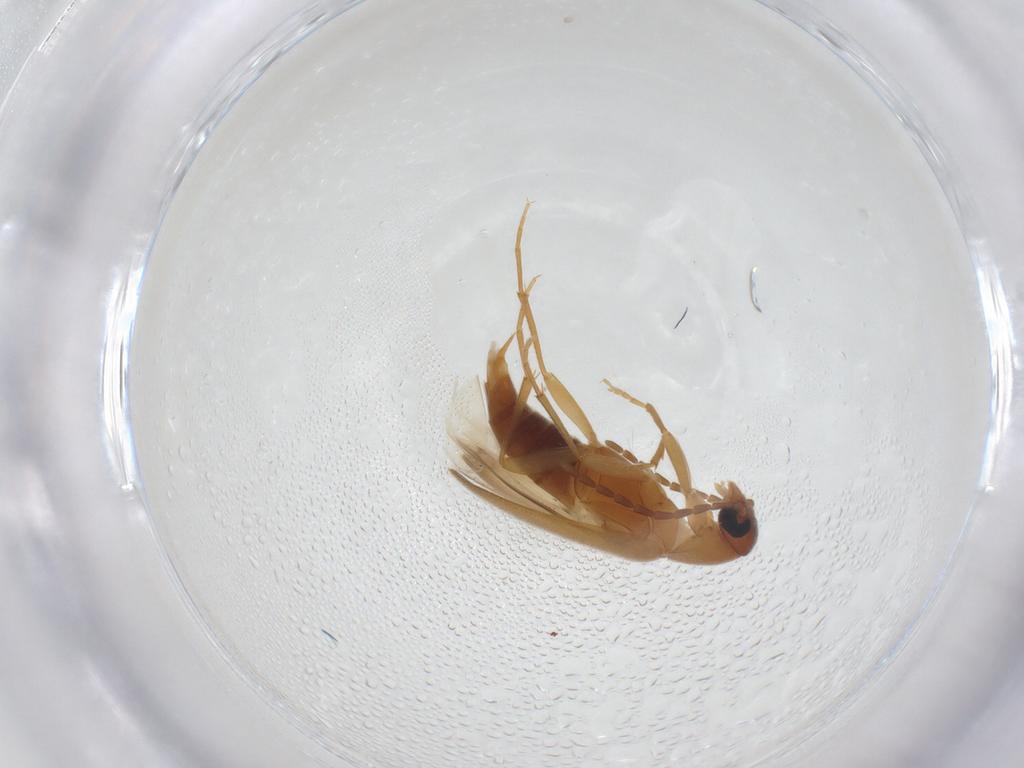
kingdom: Animalia
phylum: Arthropoda
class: Insecta
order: Coleoptera
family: Scraptiidae
